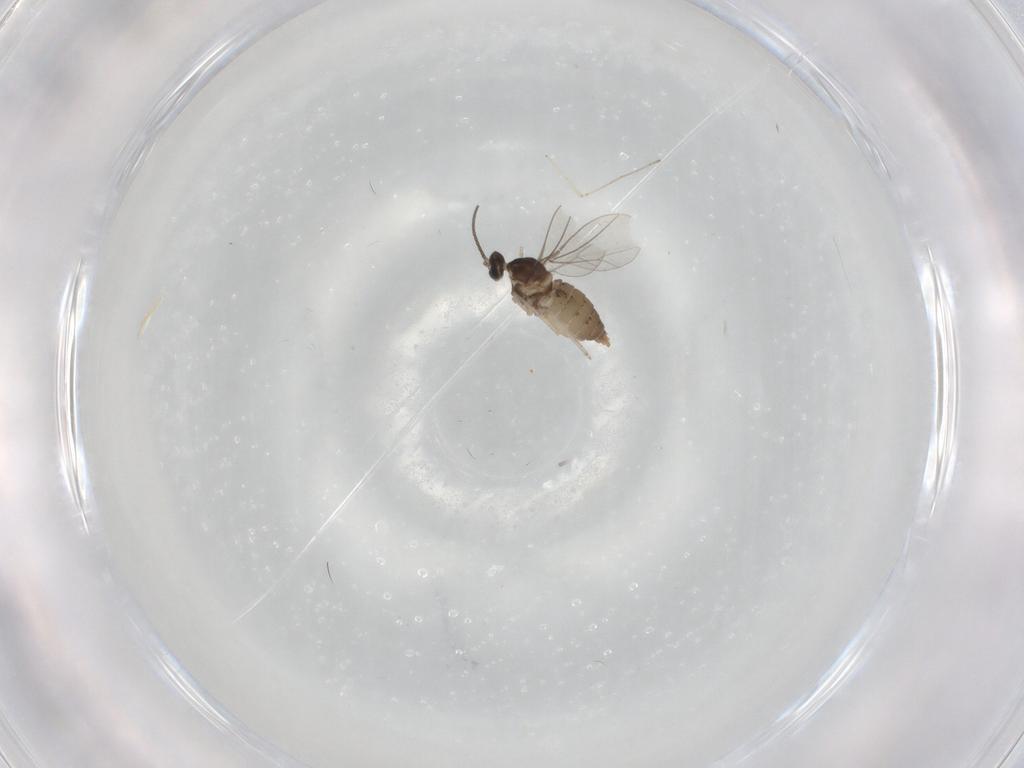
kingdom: Animalia
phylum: Arthropoda
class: Insecta
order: Diptera
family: Cecidomyiidae
